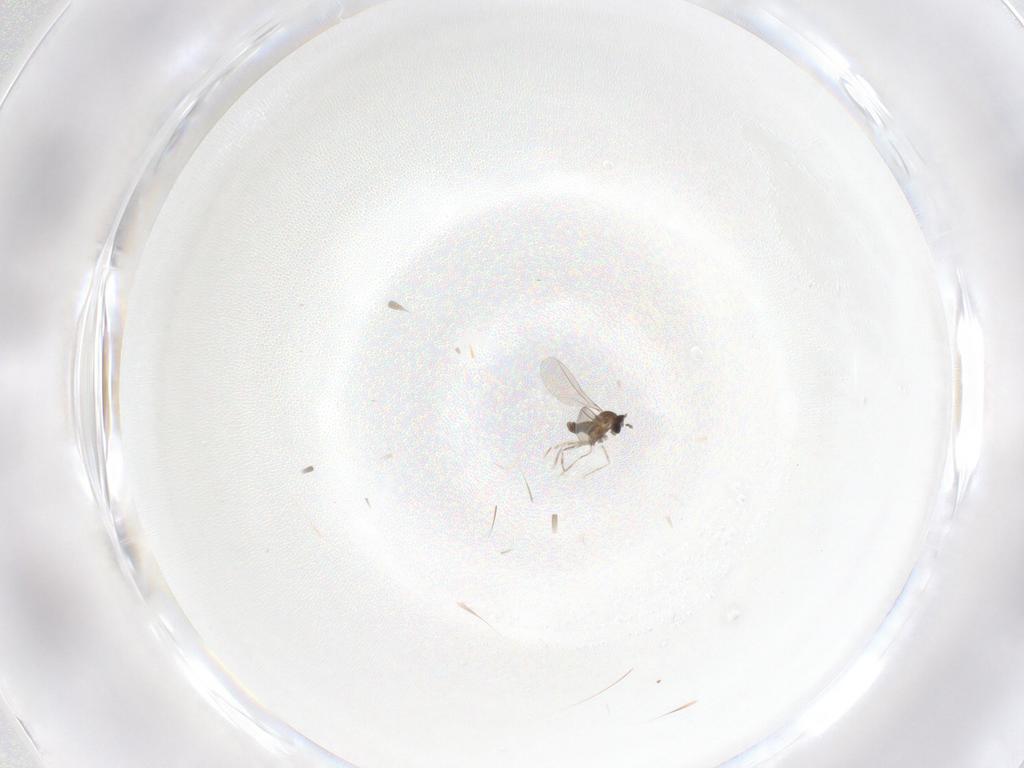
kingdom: Animalia
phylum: Arthropoda
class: Insecta
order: Diptera
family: Cecidomyiidae
